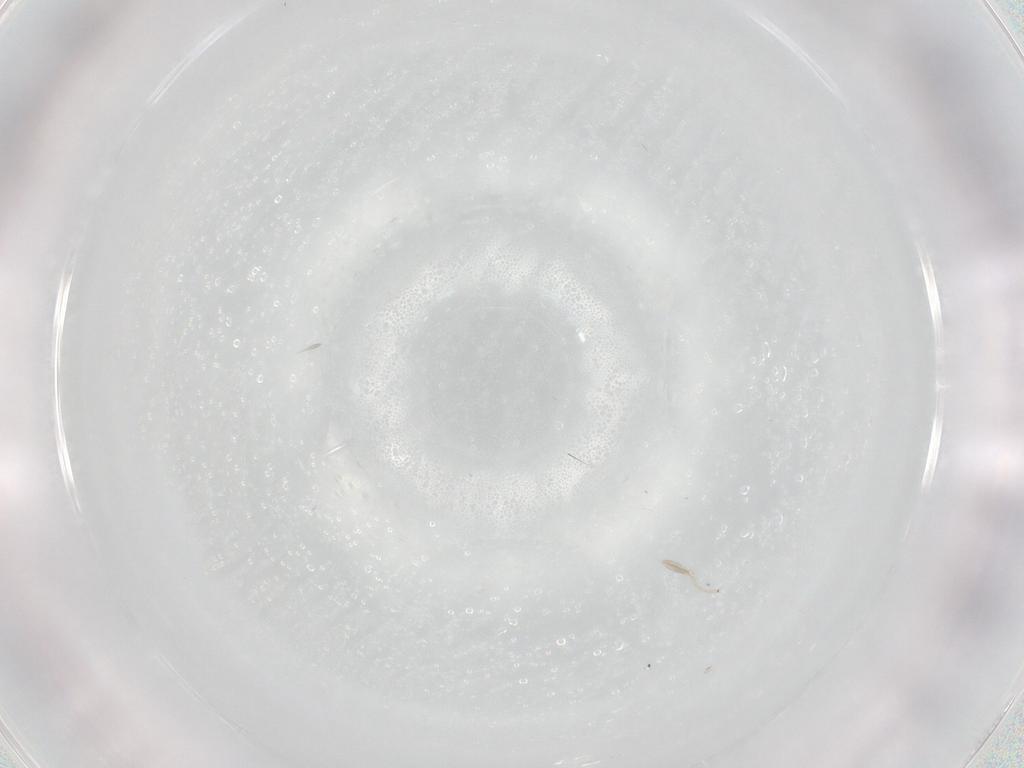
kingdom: Animalia
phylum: Arthropoda
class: Insecta
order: Diptera
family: Cecidomyiidae
